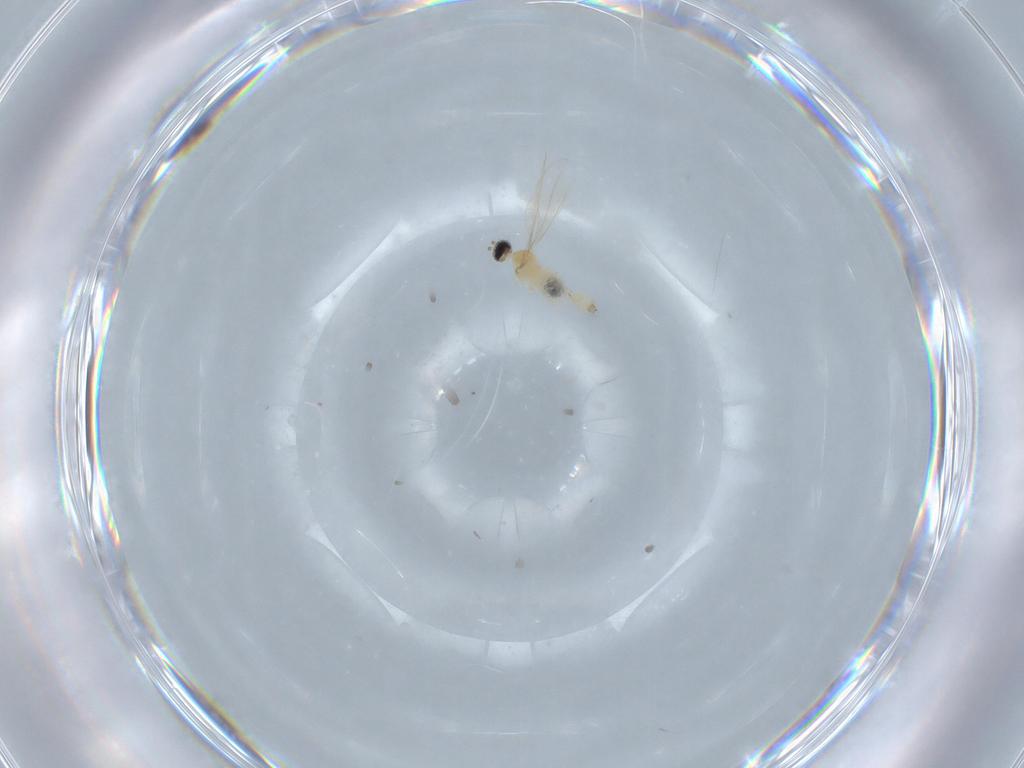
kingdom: Animalia
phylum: Arthropoda
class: Insecta
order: Diptera
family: Cecidomyiidae
